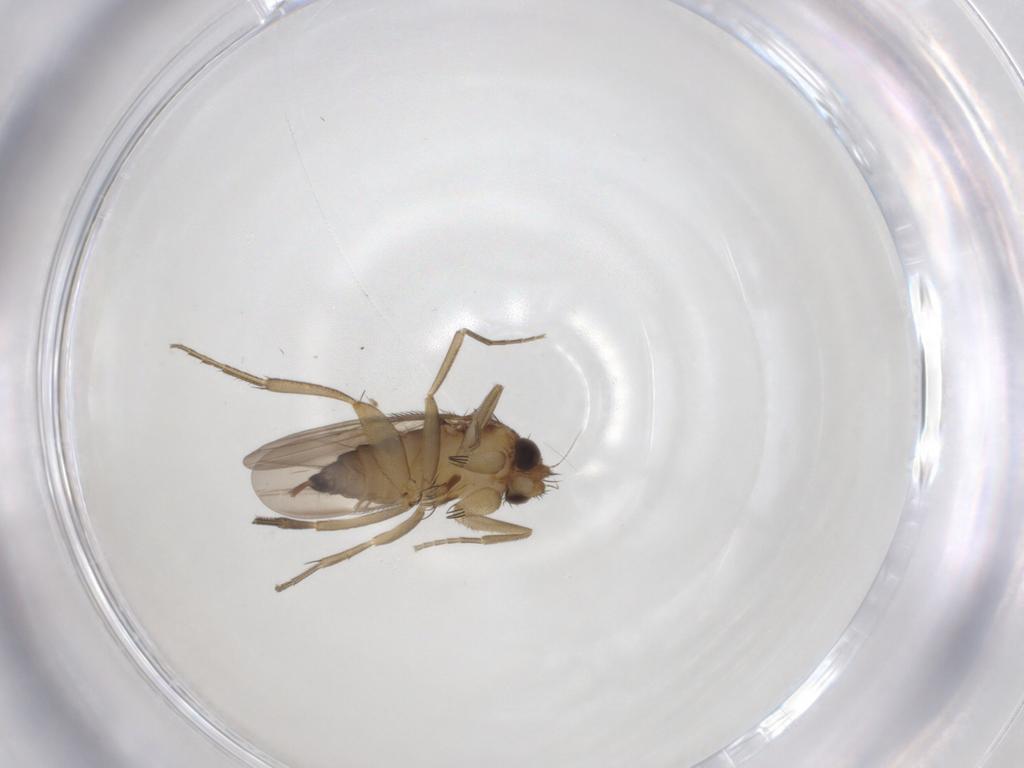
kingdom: Animalia
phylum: Arthropoda
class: Insecta
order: Diptera
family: Phoridae
